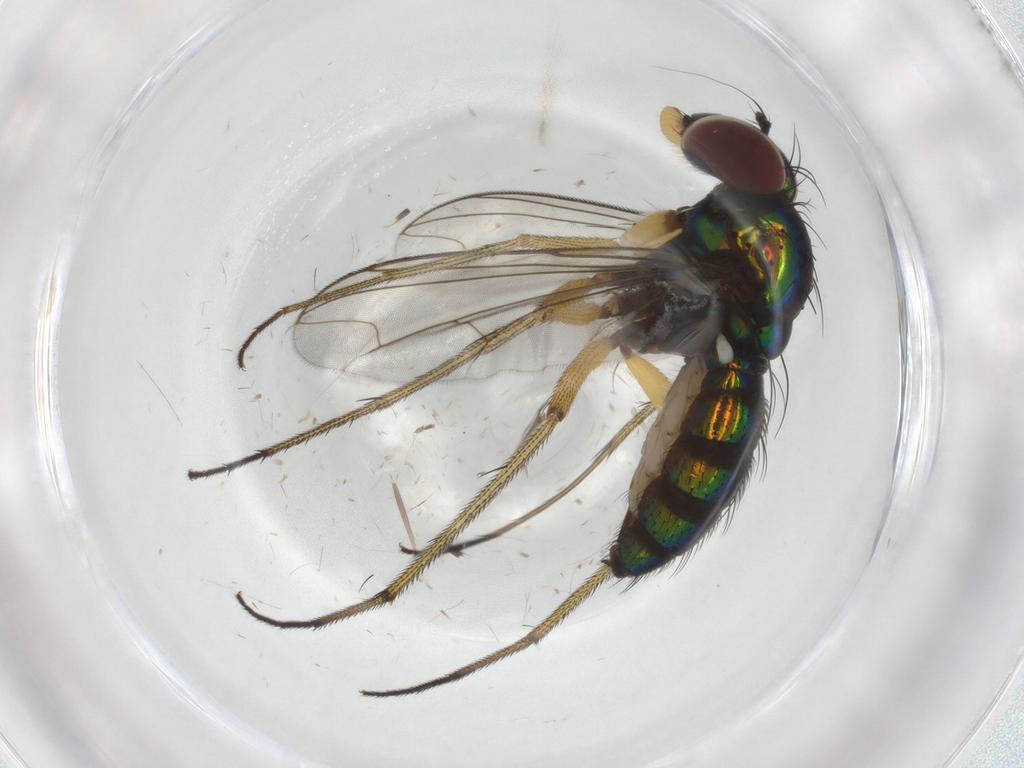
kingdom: Animalia
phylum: Arthropoda
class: Insecta
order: Diptera
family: Dolichopodidae
